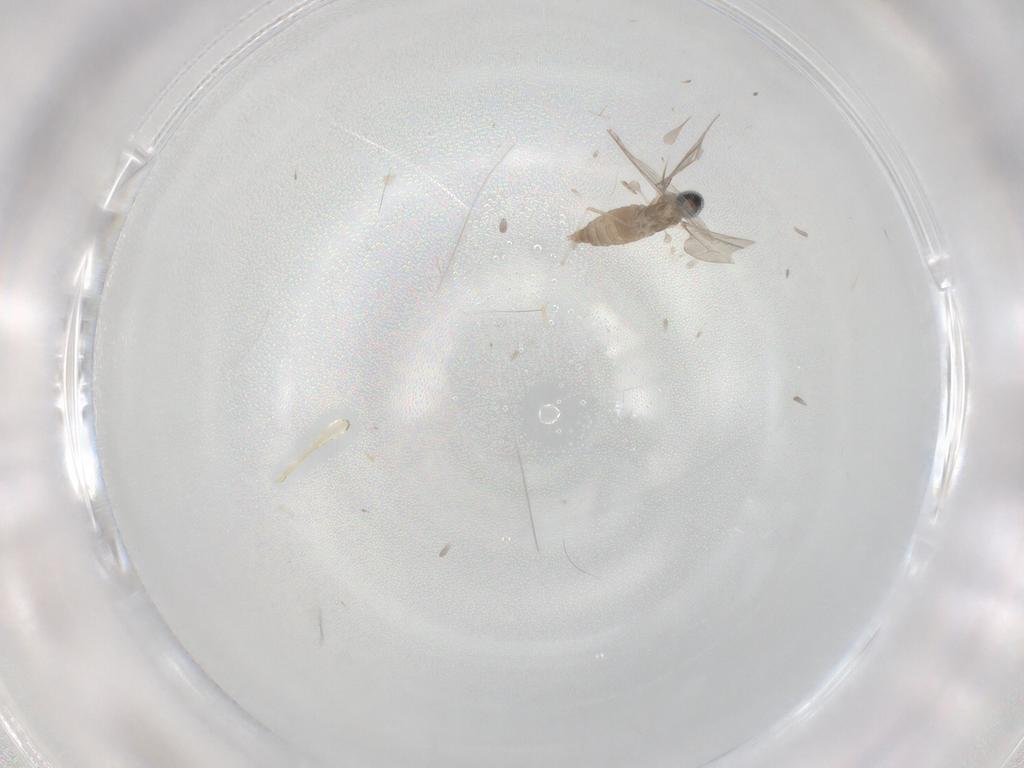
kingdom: Animalia
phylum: Arthropoda
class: Insecta
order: Diptera
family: Cecidomyiidae
